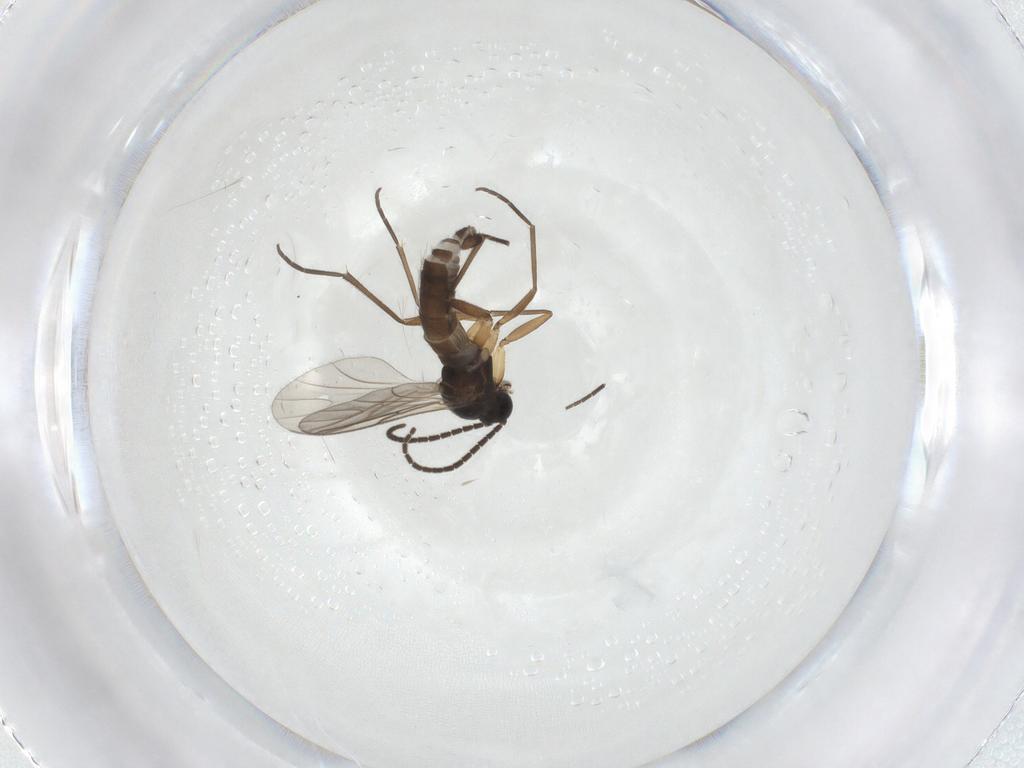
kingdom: Animalia
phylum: Arthropoda
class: Insecta
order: Diptera
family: Sciaridae
